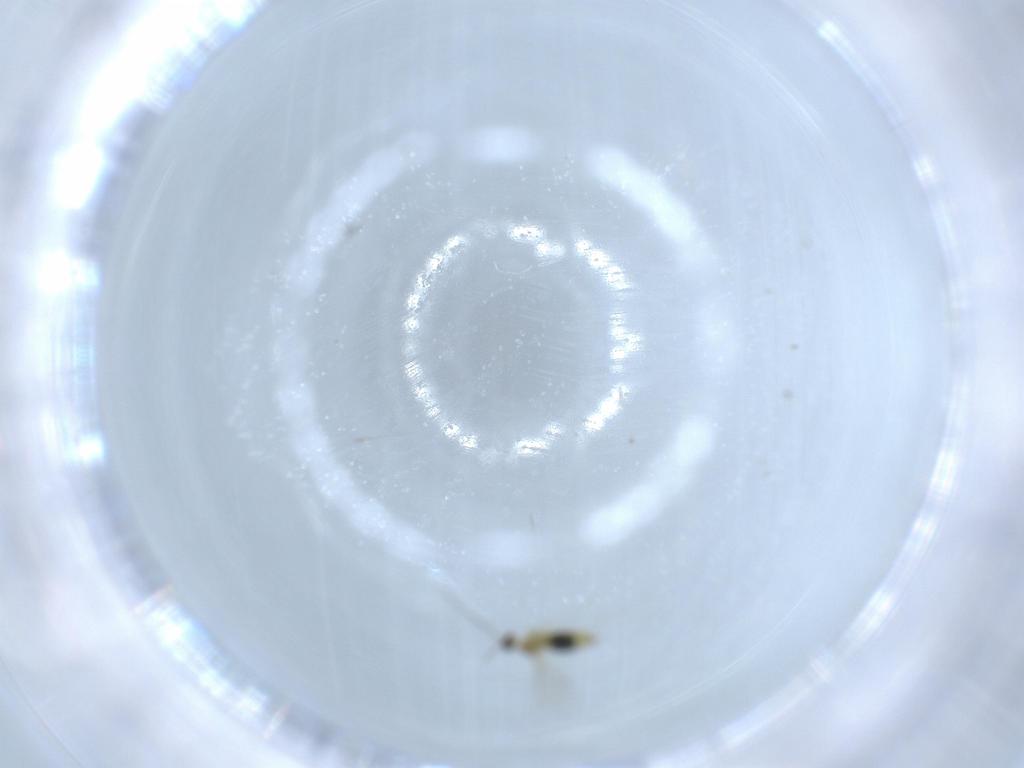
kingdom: Animalia
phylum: Arthropoda
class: Insecta
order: Diptera
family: Cecidomyiidae
